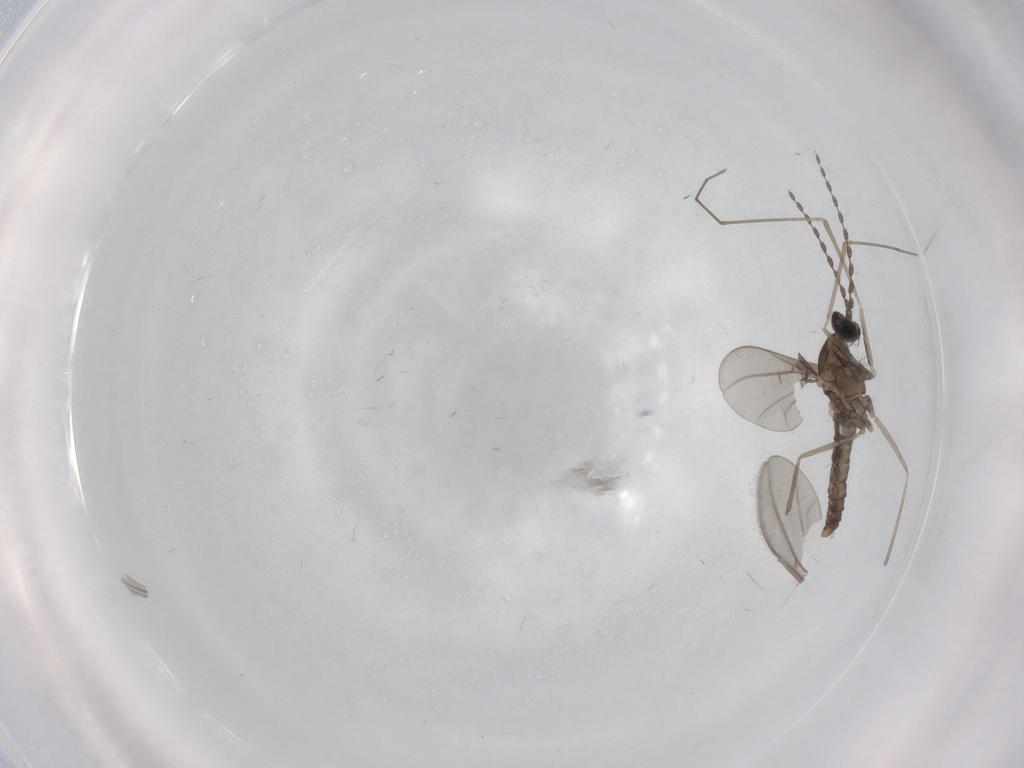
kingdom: Animalia
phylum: Arthropoda
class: Insecta
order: Diptera
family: Cecidomyiidae
